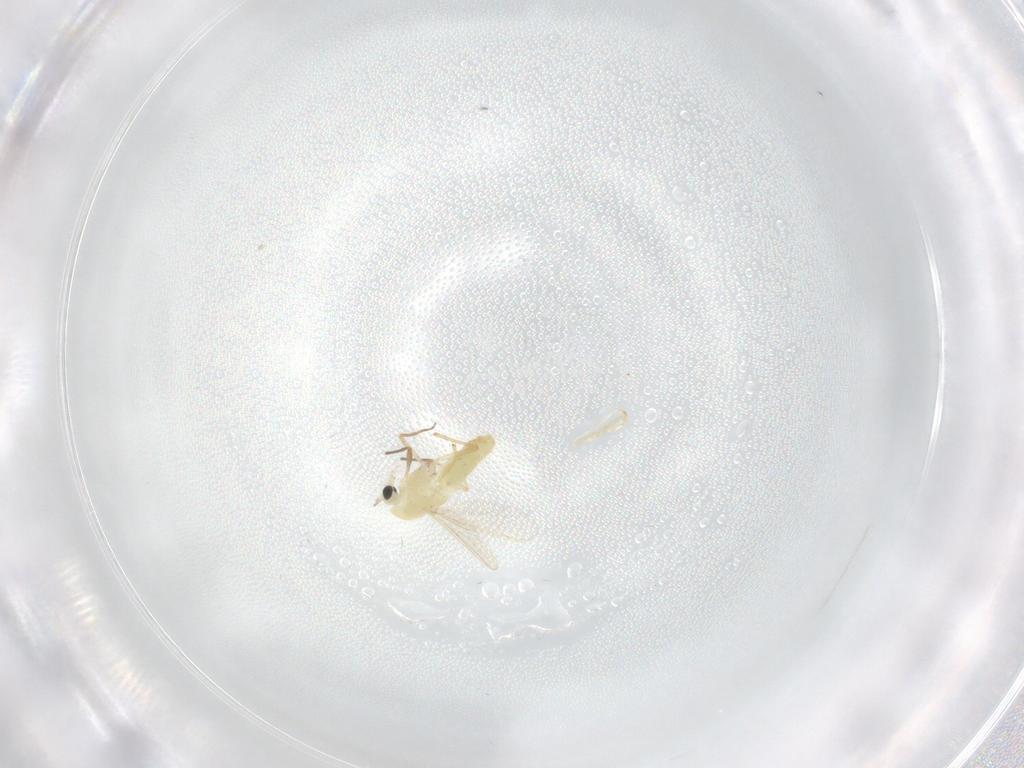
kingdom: Animalia
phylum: Arthropoda
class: Insecta
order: Diptera
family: Chironomidae
